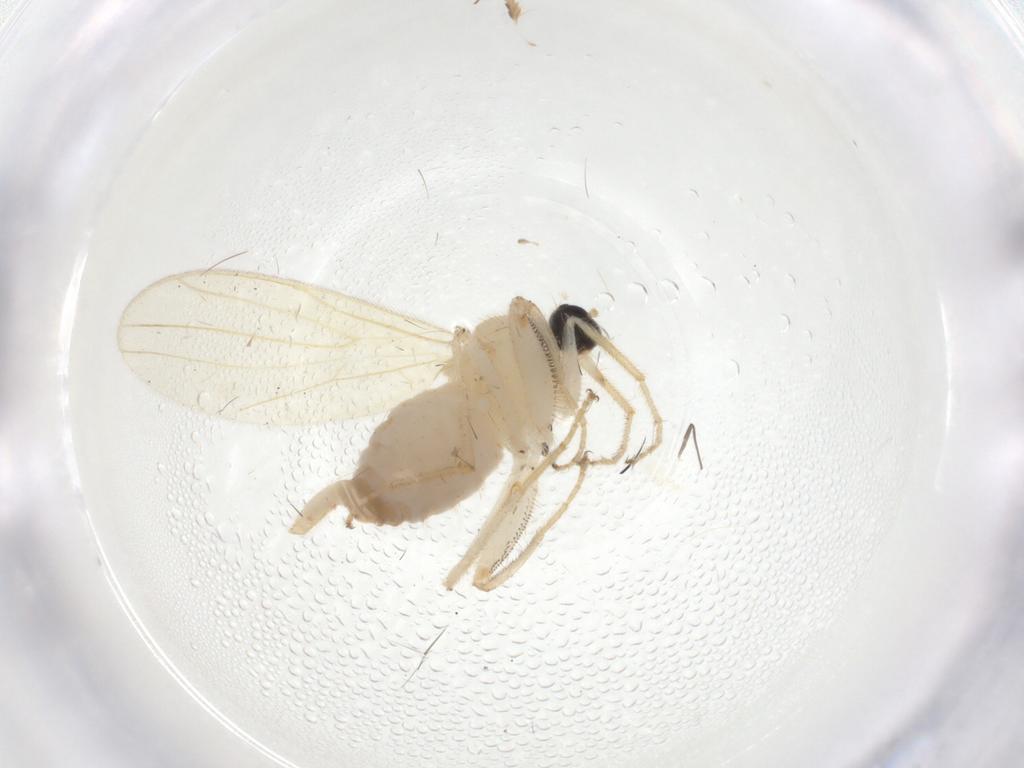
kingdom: Animalia
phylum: Arthropoda
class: Insecta
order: Diptera
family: Hybotidae
